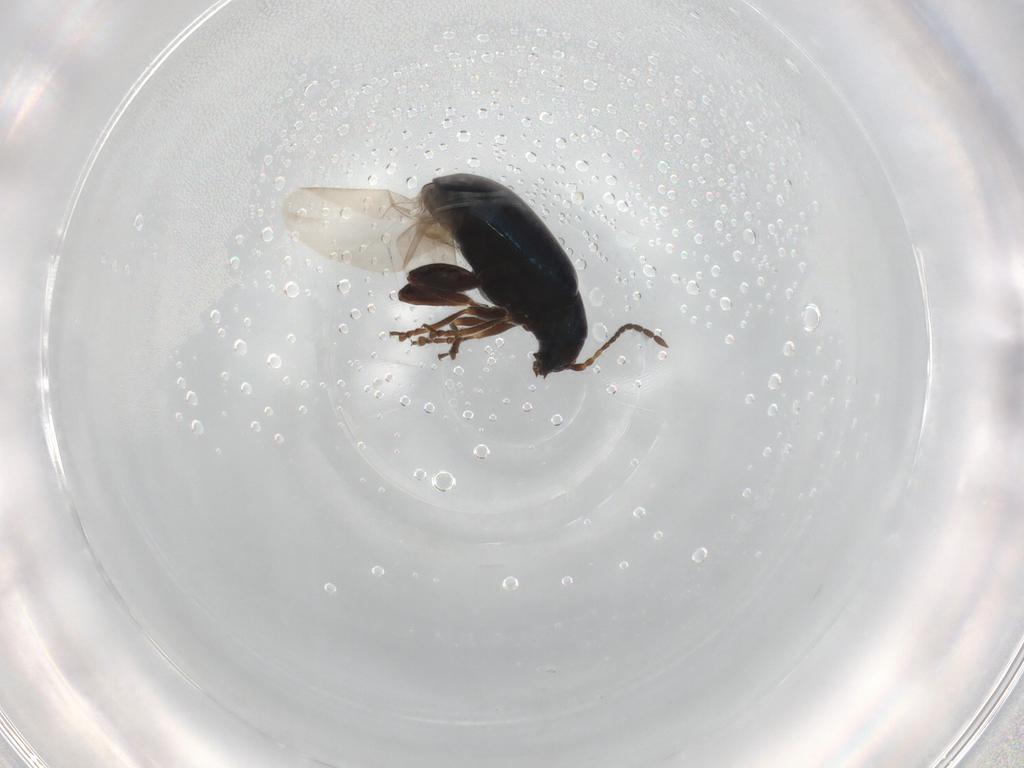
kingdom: Animalia
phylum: Arthropoda
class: Insecta
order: Coleoptera
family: Chrysomelidae
